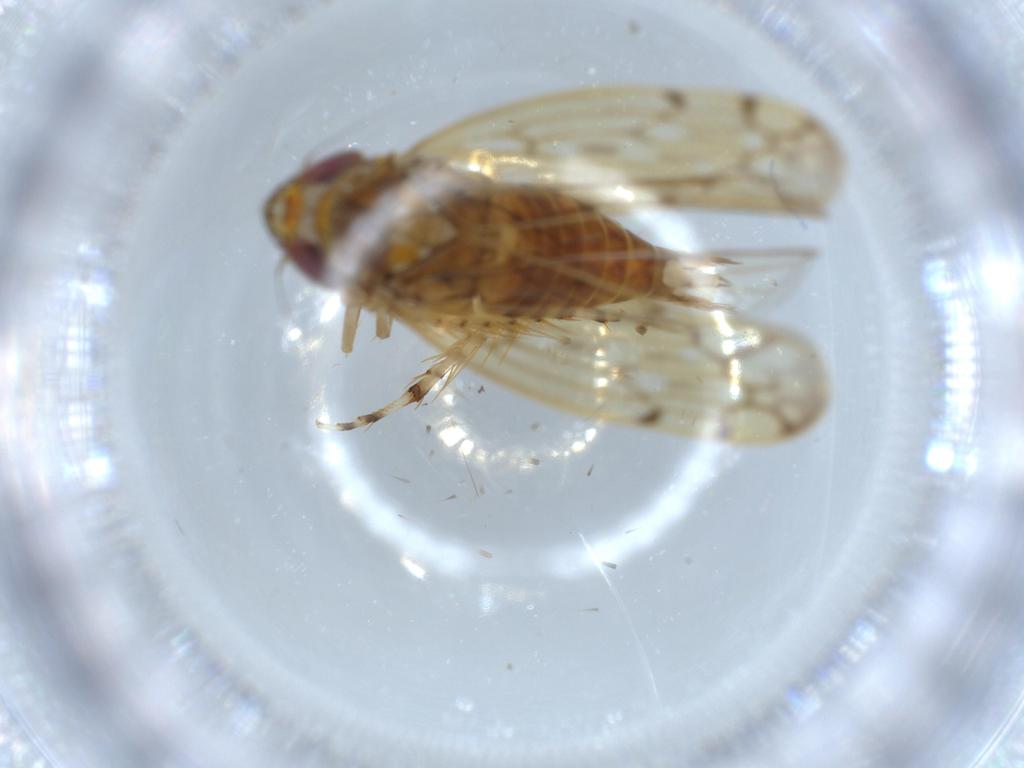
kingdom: Animalia
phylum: Arthropoda
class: Insecta
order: Hemiptera
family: Cicadellidae
